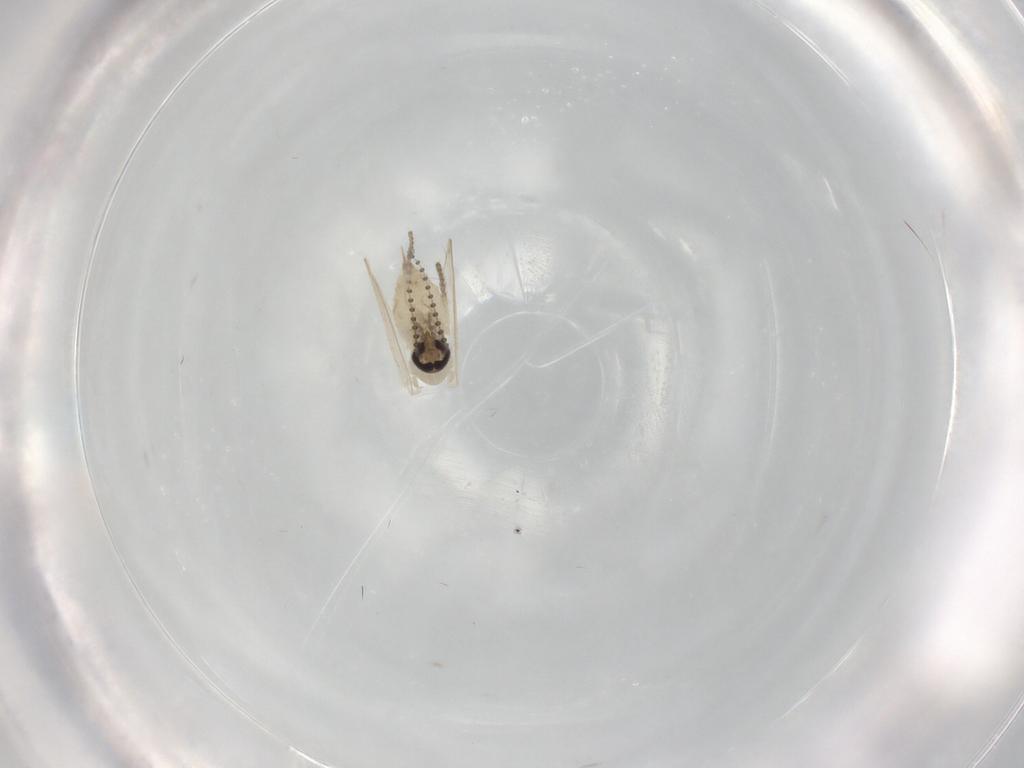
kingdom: Animalia
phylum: Arthropoda
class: Insecta
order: Diptera
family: Psychodidae
